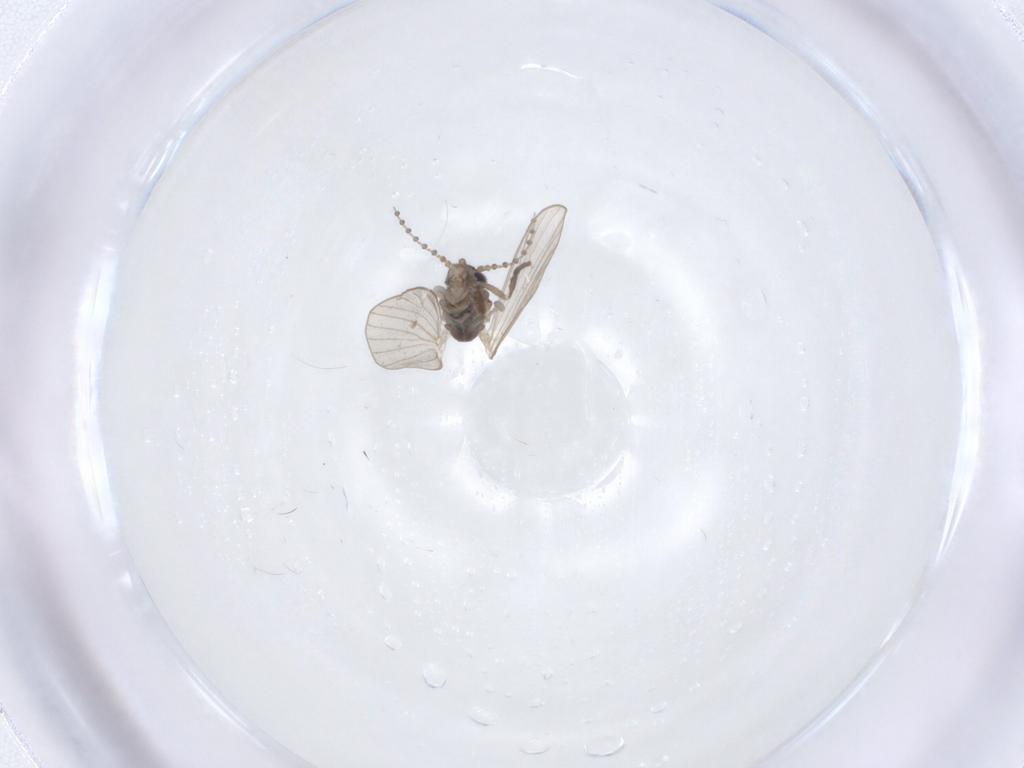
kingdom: Animalia
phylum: Arthropoda
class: Insecta
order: Diptera
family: Psychodidae
